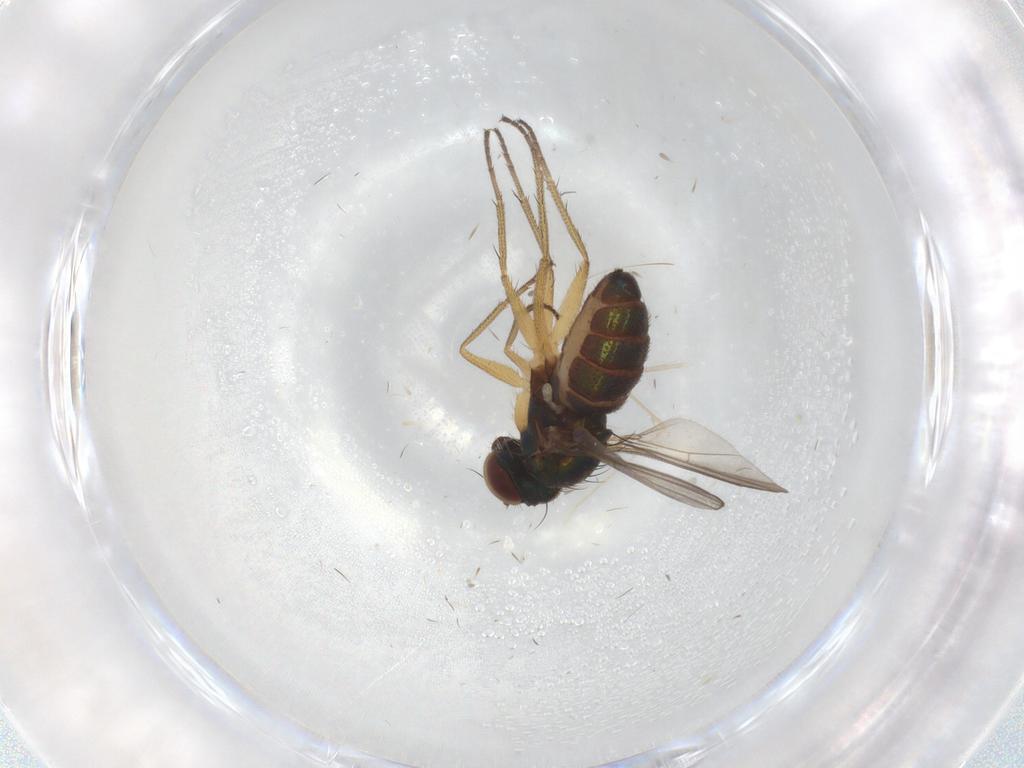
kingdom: Animalia
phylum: Arthropoda
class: Insecta
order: Diptera
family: Cecidomyiidae
